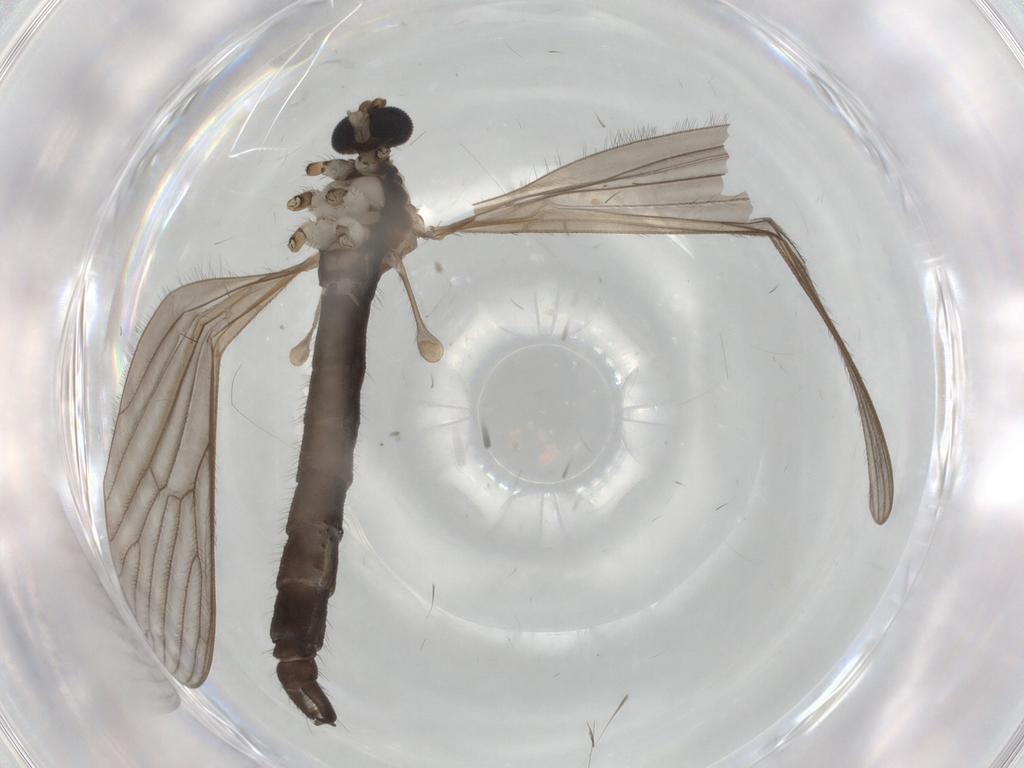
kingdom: Animalia
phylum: Arthropoda
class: Insecta
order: Diptera
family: Chironomidae
